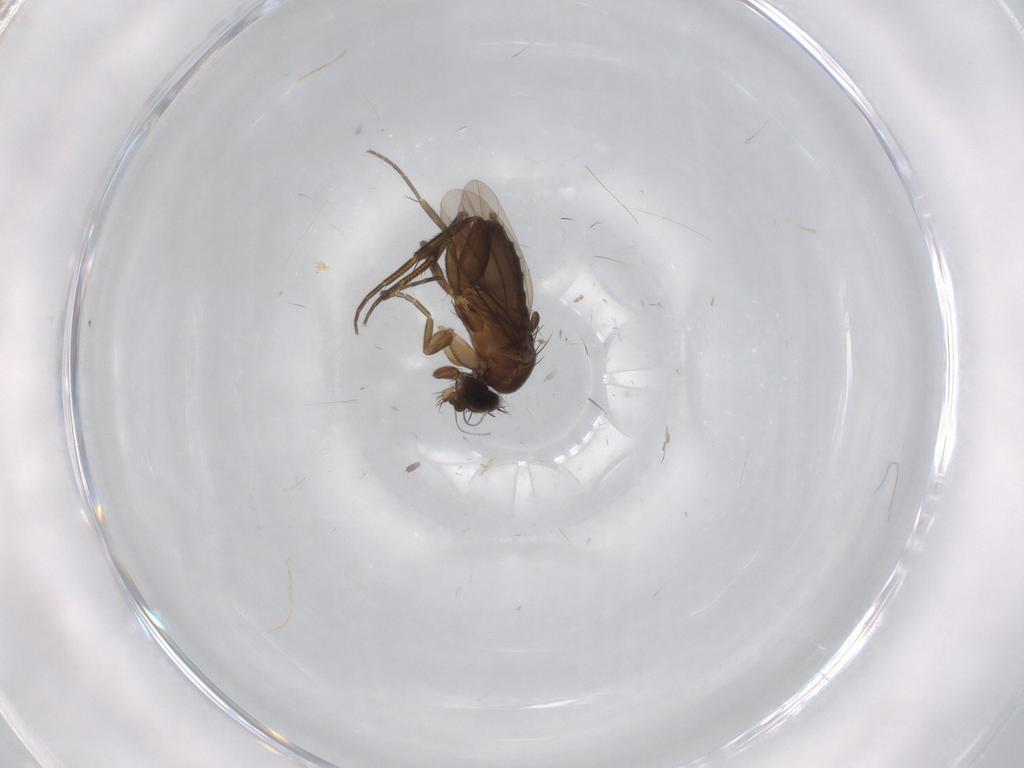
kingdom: Animalia
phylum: Arthropoda
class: Insecta
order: Diptera
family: Phoridae
